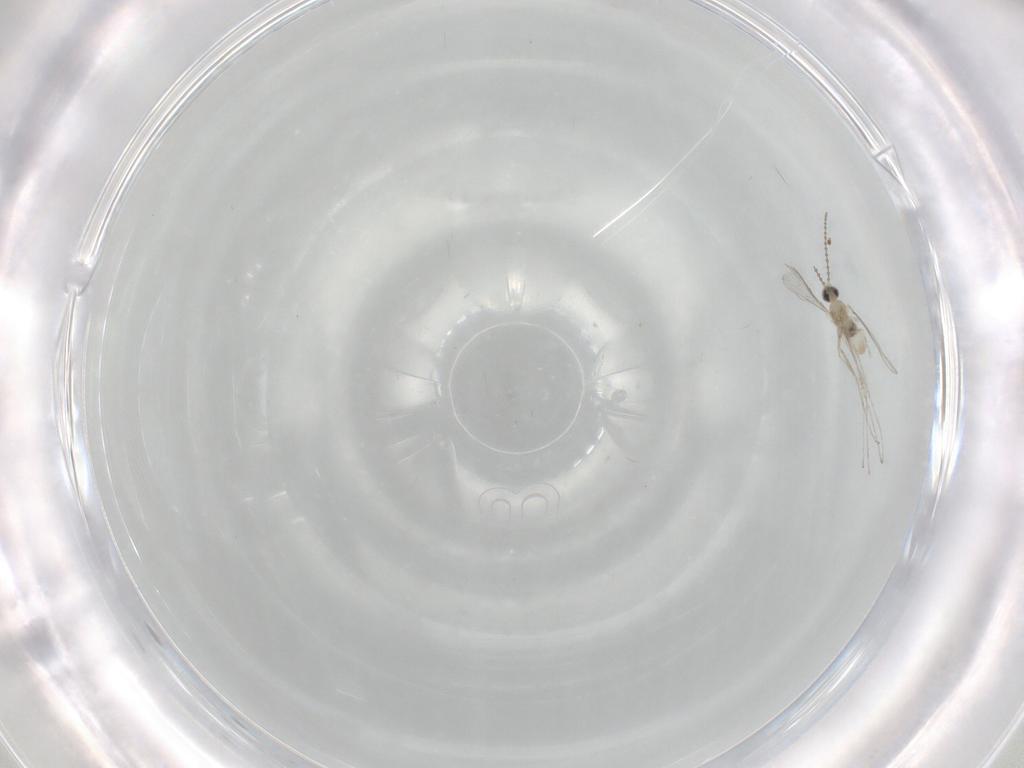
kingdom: Animalia
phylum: Arthropoda
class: Insecta
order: Diptera
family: Cecidomyiidae
